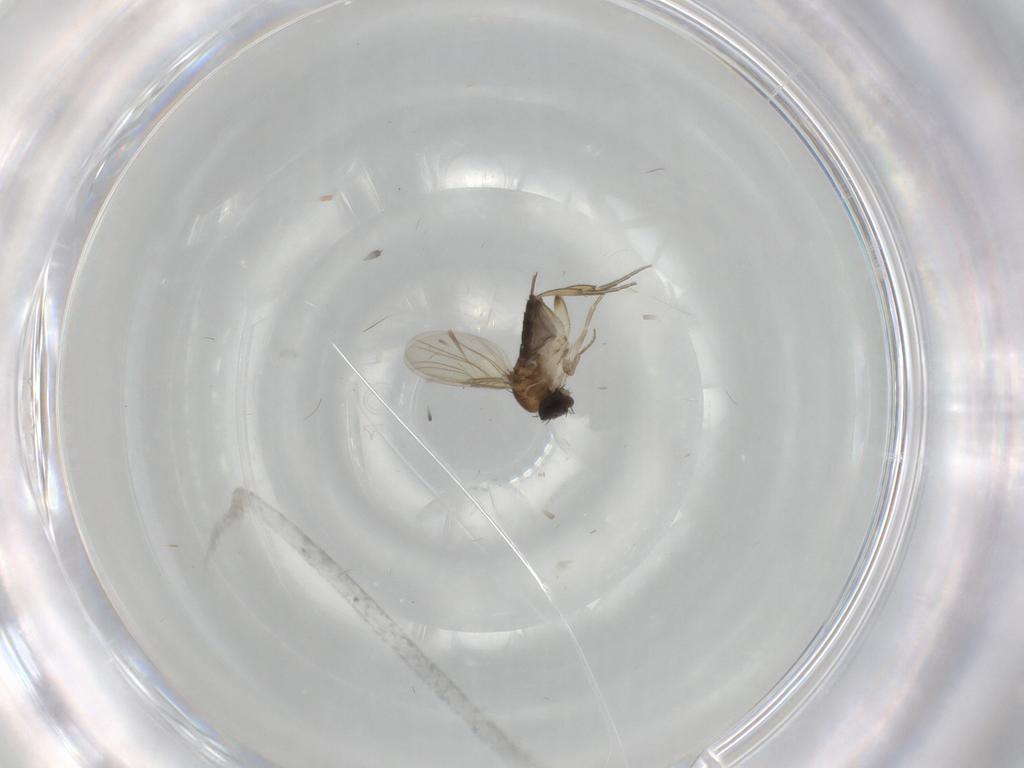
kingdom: Animalia
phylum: Arthropoda
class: Insecta
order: Diptera
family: Phoridae
